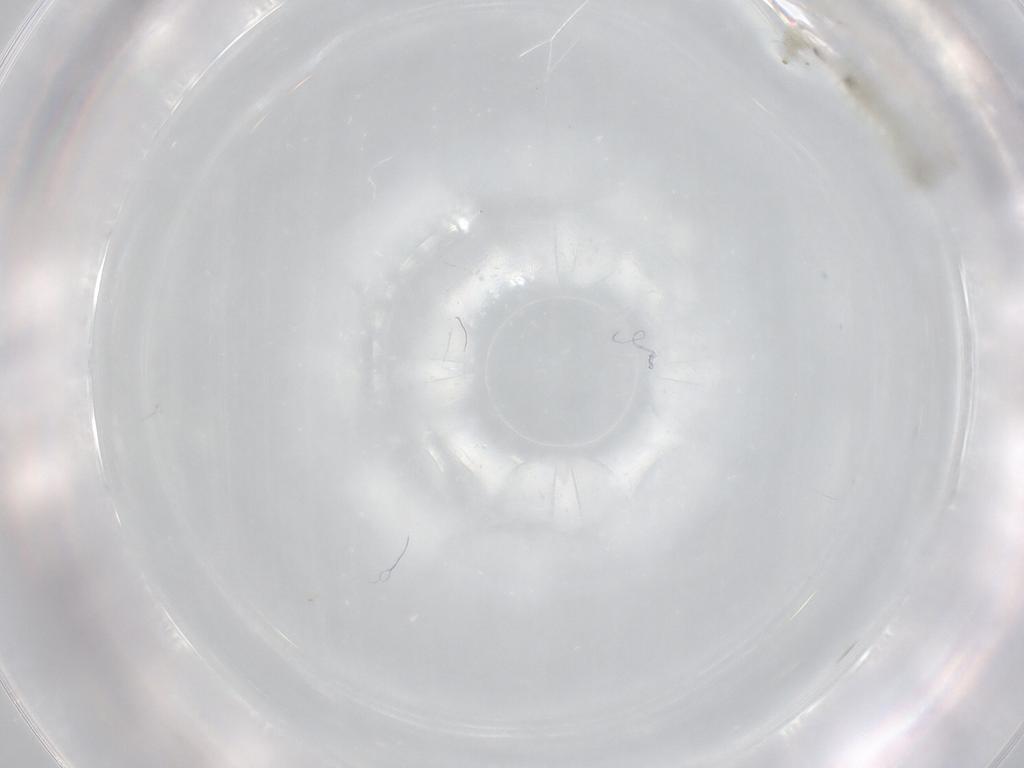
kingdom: Animalia
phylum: Arthropoda
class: Insecta
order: Diptera
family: Chironomidae
